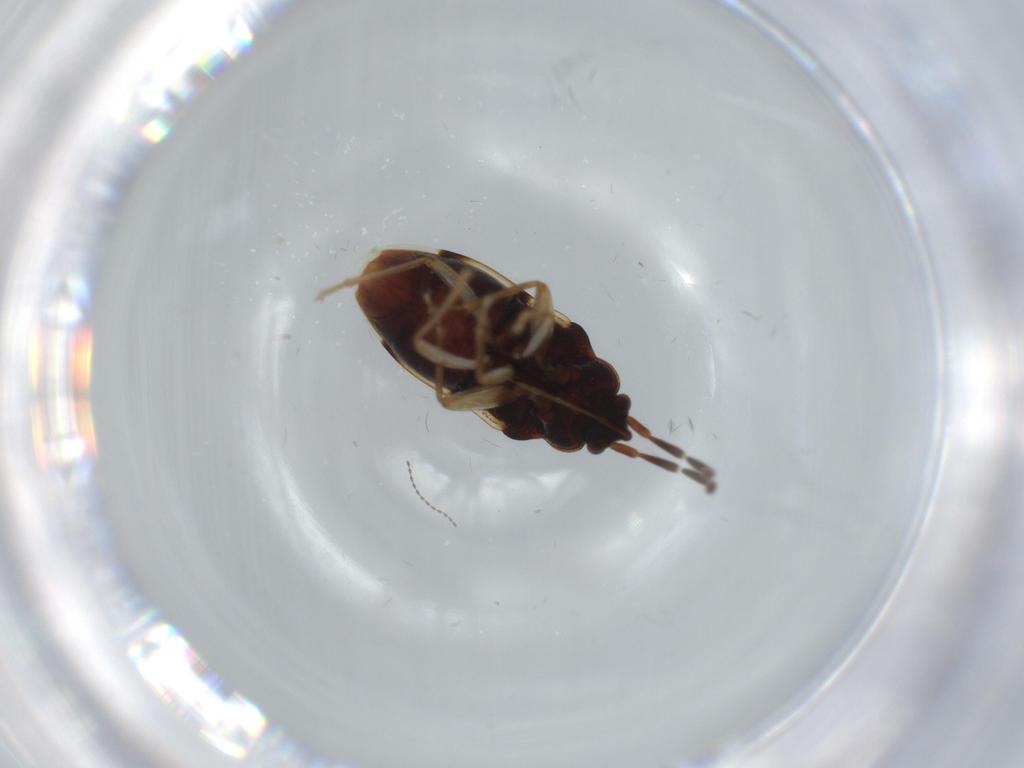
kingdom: Animalia
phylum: Arthropoda
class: Insecta
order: Hemiptera
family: Rhyparochromidae
